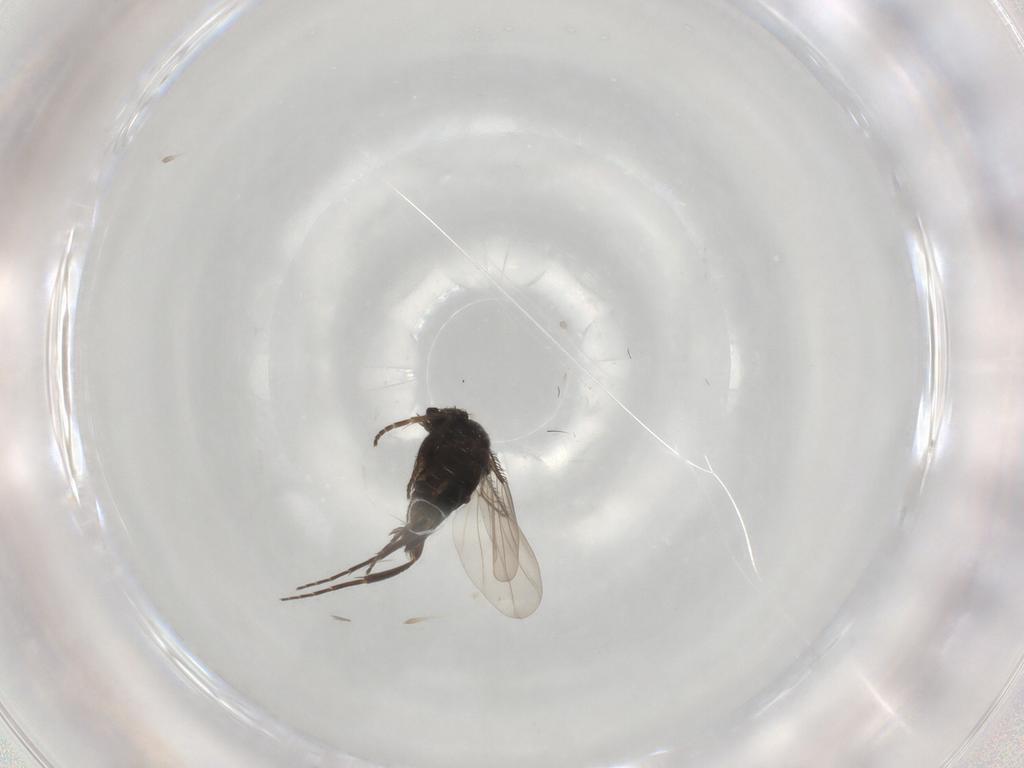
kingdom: Animalia
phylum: Arthropoda
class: Insecta
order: Diptera
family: Phoridae
